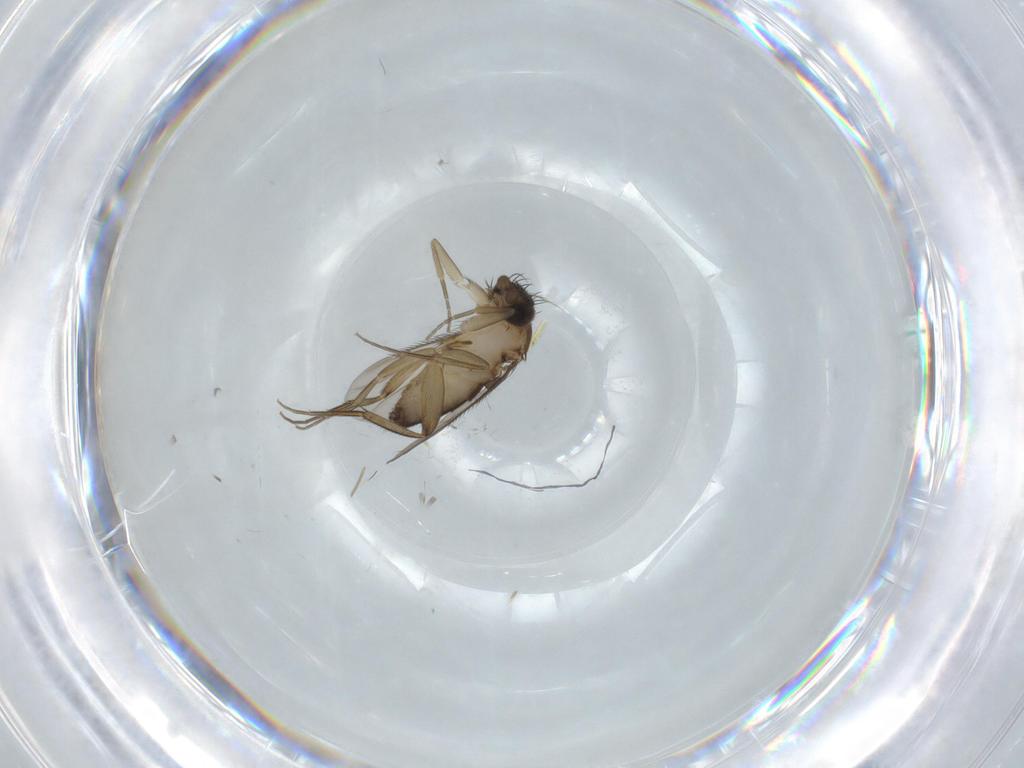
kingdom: Animalia
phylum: Arthropoda
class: Insecta
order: Diptera
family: Phoridae
